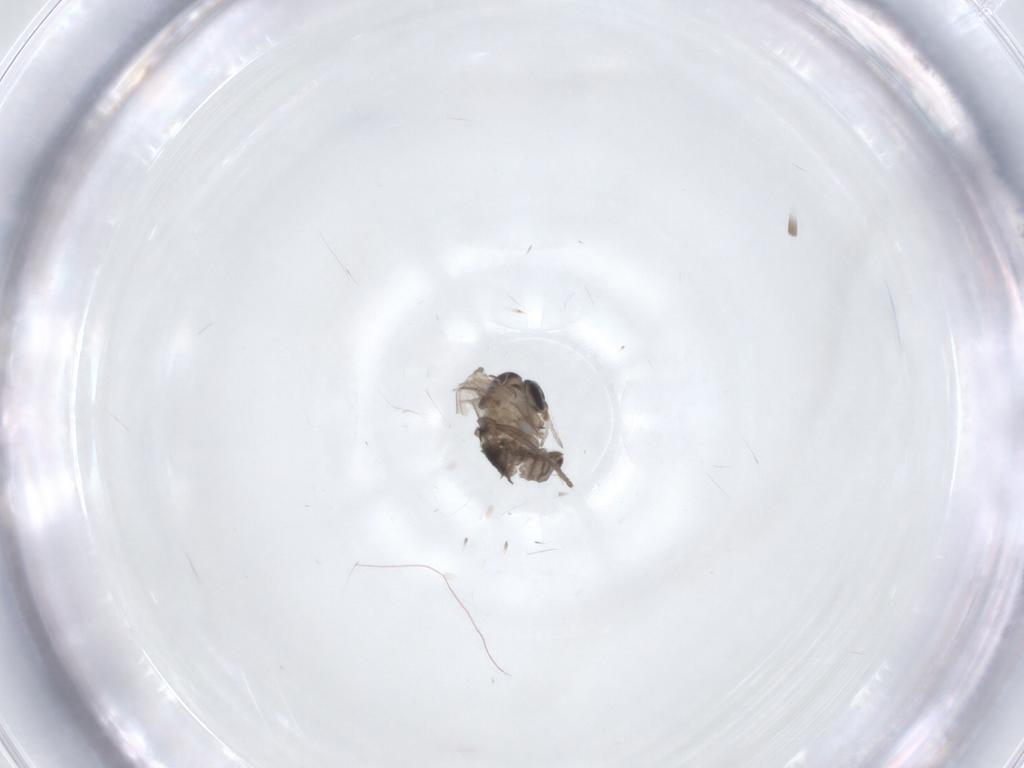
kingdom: Animalia
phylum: Arthropoda
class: Insecta
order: Diptera
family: Psychodidae
